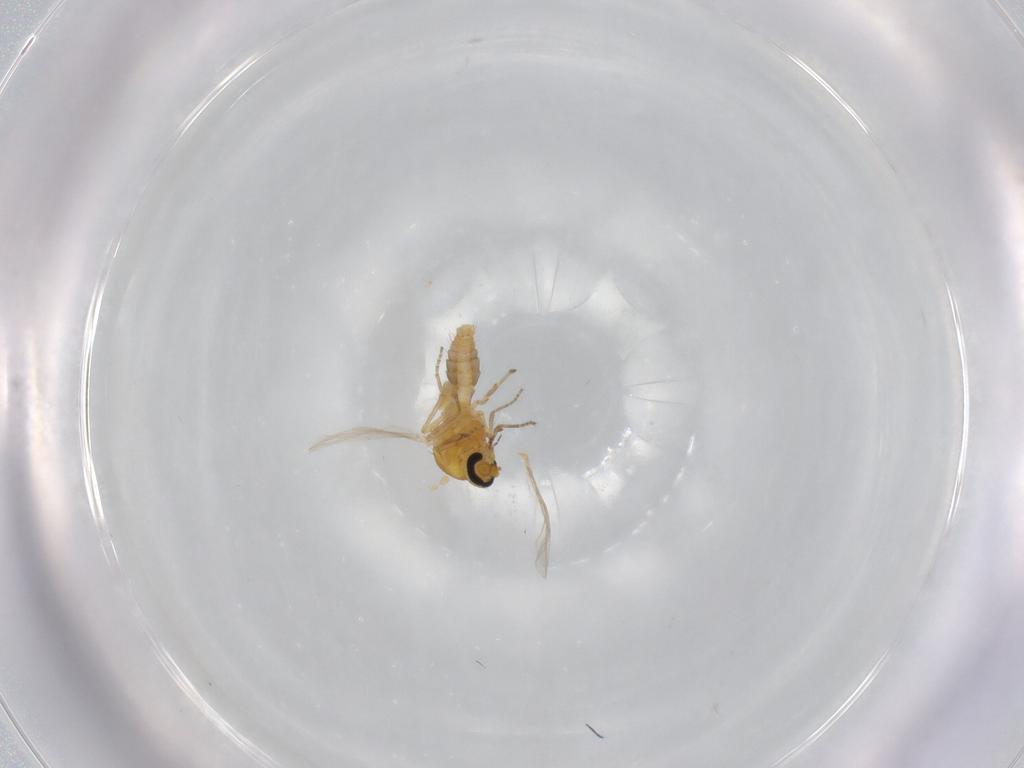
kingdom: Animalia
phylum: Arthropoda
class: Insecta
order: Diptera
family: Ceratopogonidae
